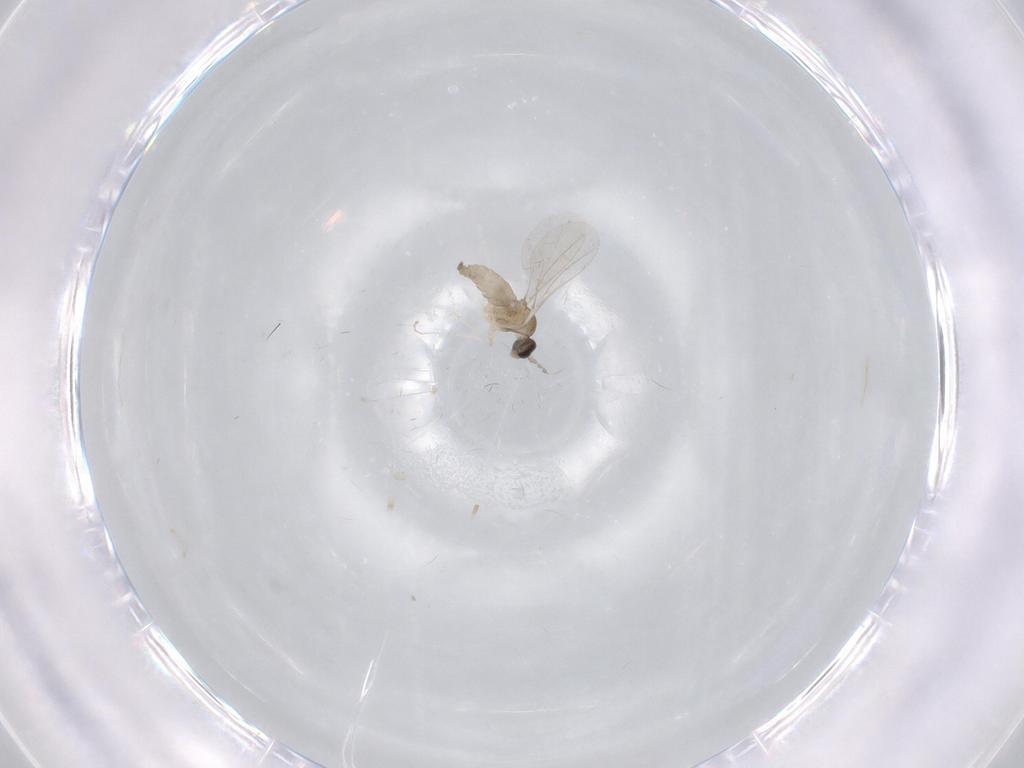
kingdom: Animalia
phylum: Arthropoda
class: Insecta
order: Diptera
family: Cecidomyiidae
